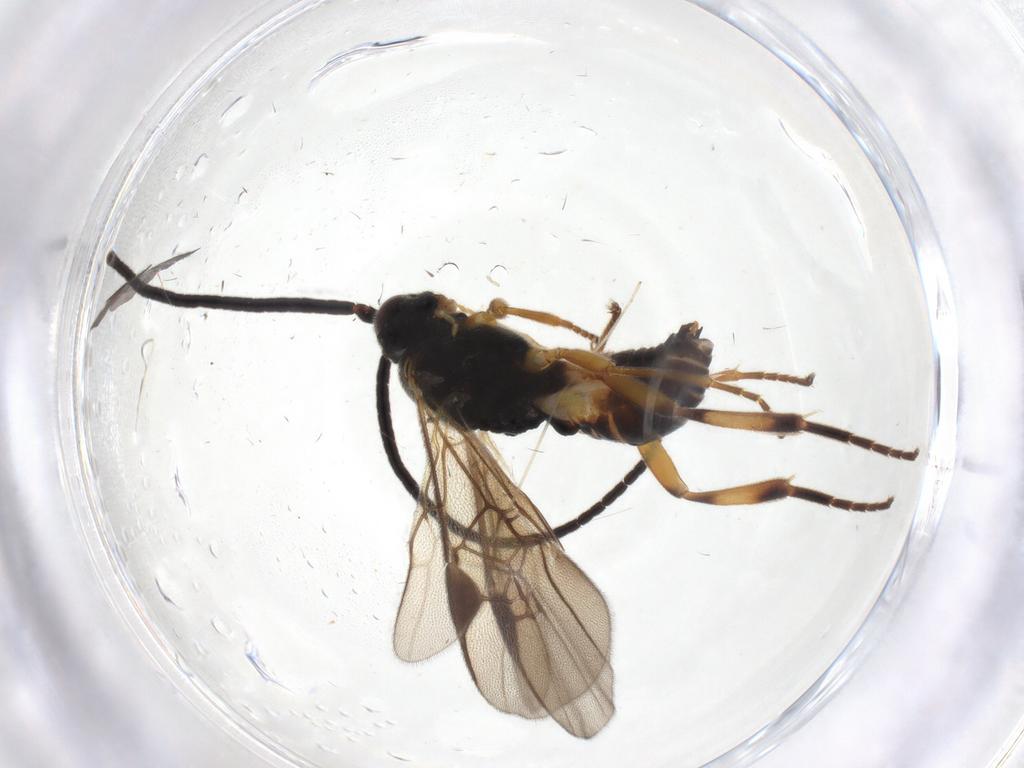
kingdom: Animalia
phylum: Arthropoda
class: Insecta
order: Hymenoptera
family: Braconidae
